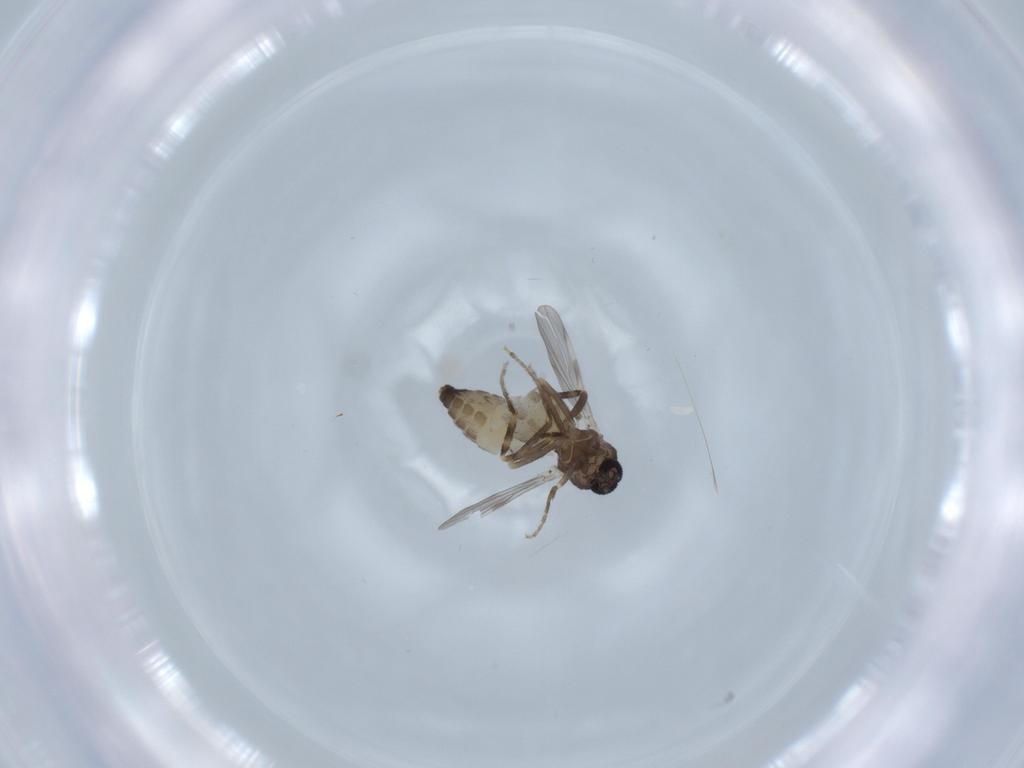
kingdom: Animalia
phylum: Arthropoda
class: Insecta
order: Diptera
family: Ceratopogonidae
